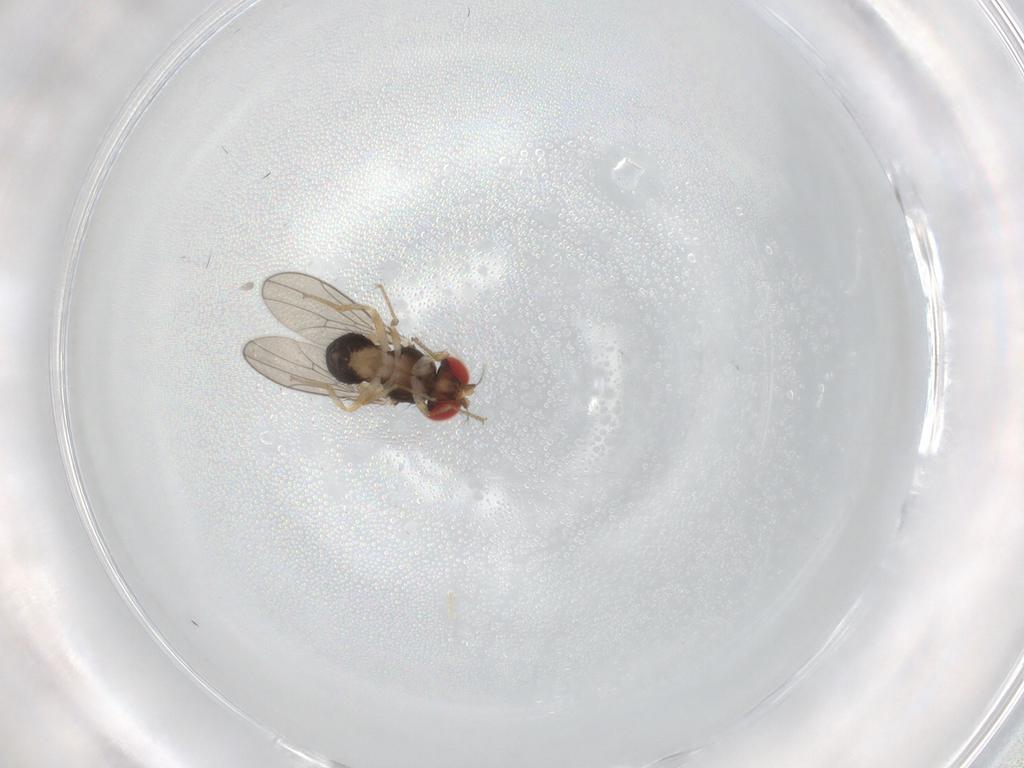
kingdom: Animalia
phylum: Arthropoda
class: Insecta
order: Diptera
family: Drosophilidae
